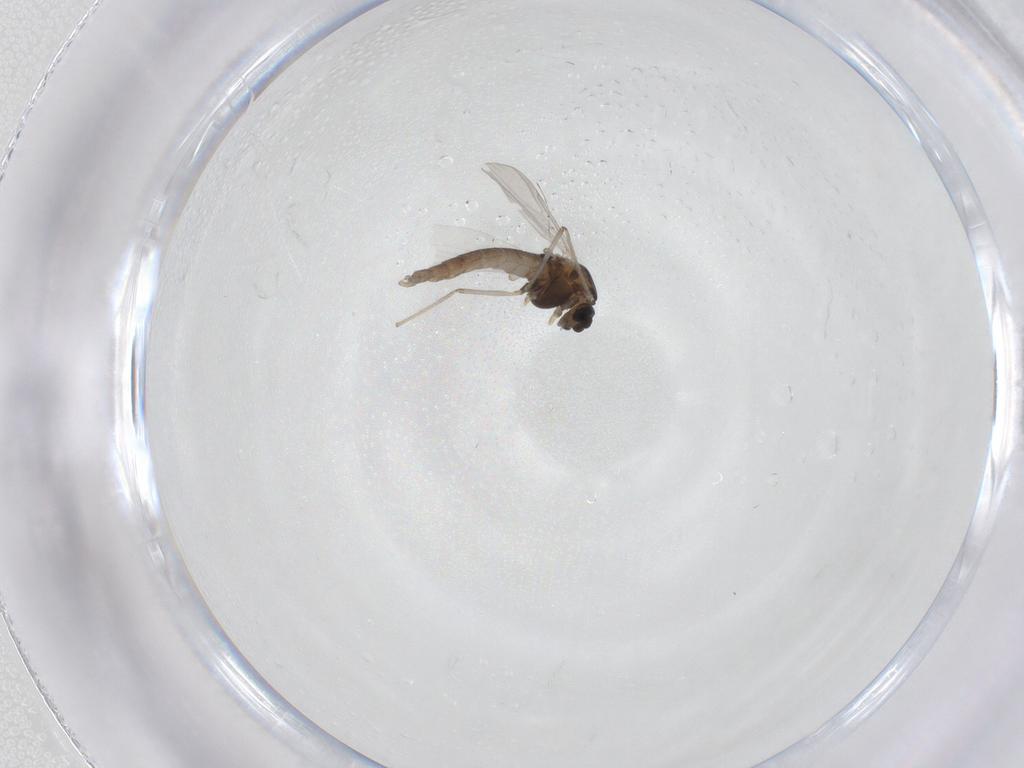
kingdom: Animalia
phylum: Arthropoda
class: Insecta
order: Diptera
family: Chironomidae
